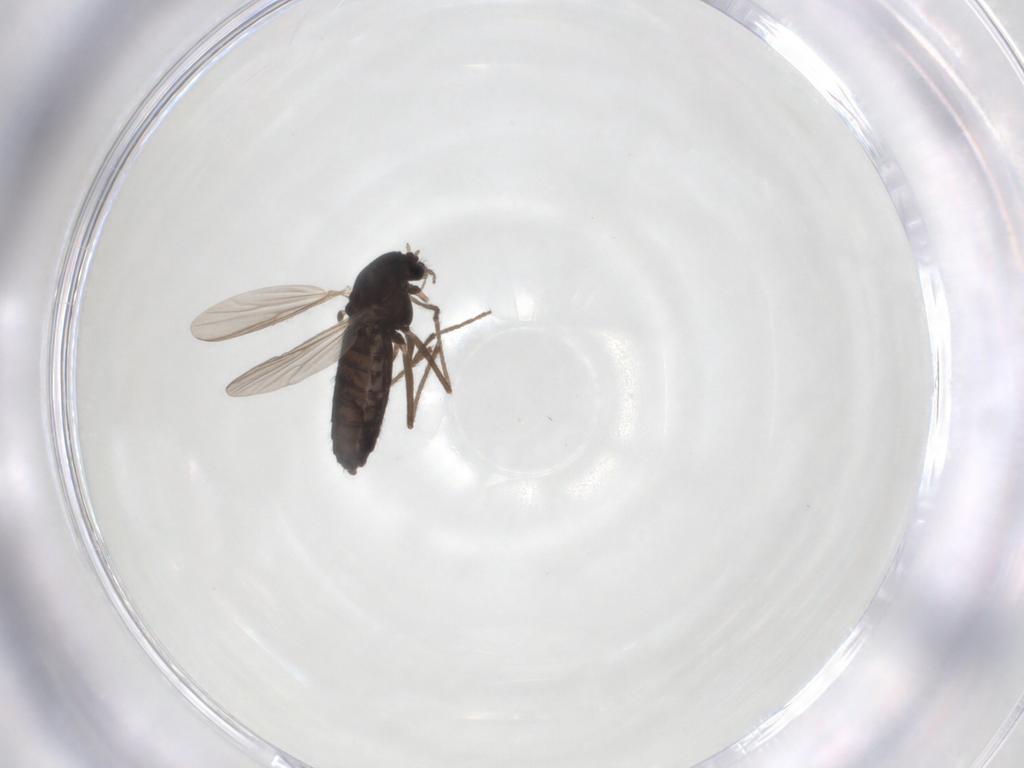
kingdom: Animalia
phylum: Arthropoda
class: Insecta
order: Diptera
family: Chironomidae
